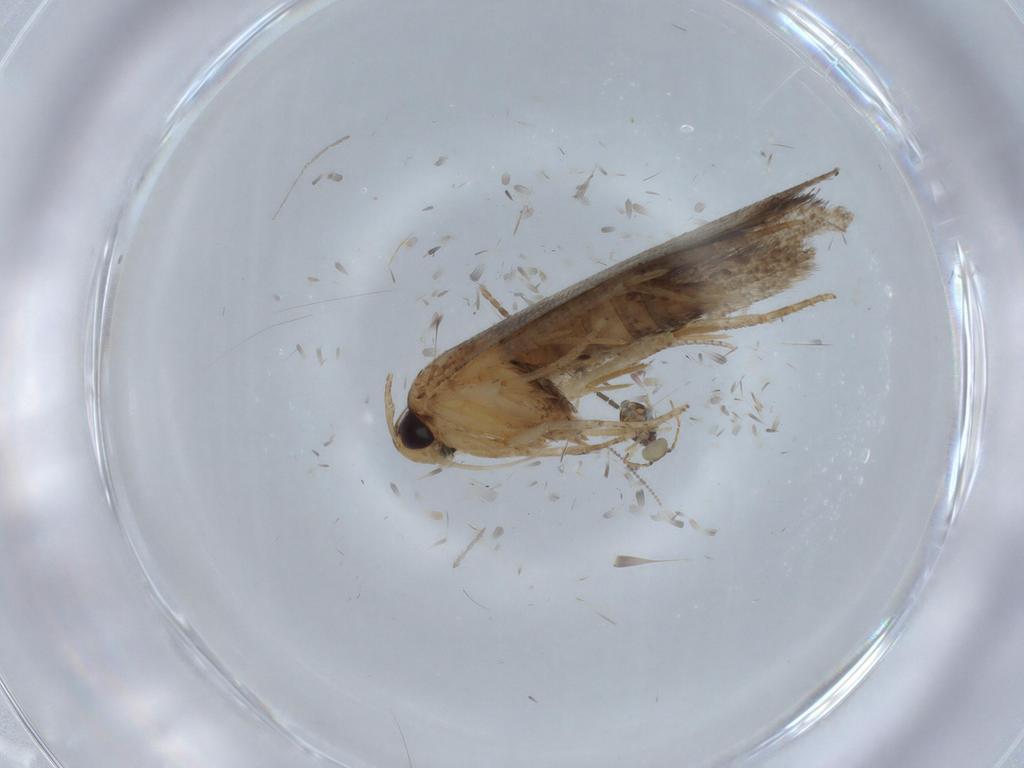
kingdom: Animalia
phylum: Arthropoda
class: Insecta
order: Lepidoptera
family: Cosmopterigidae
